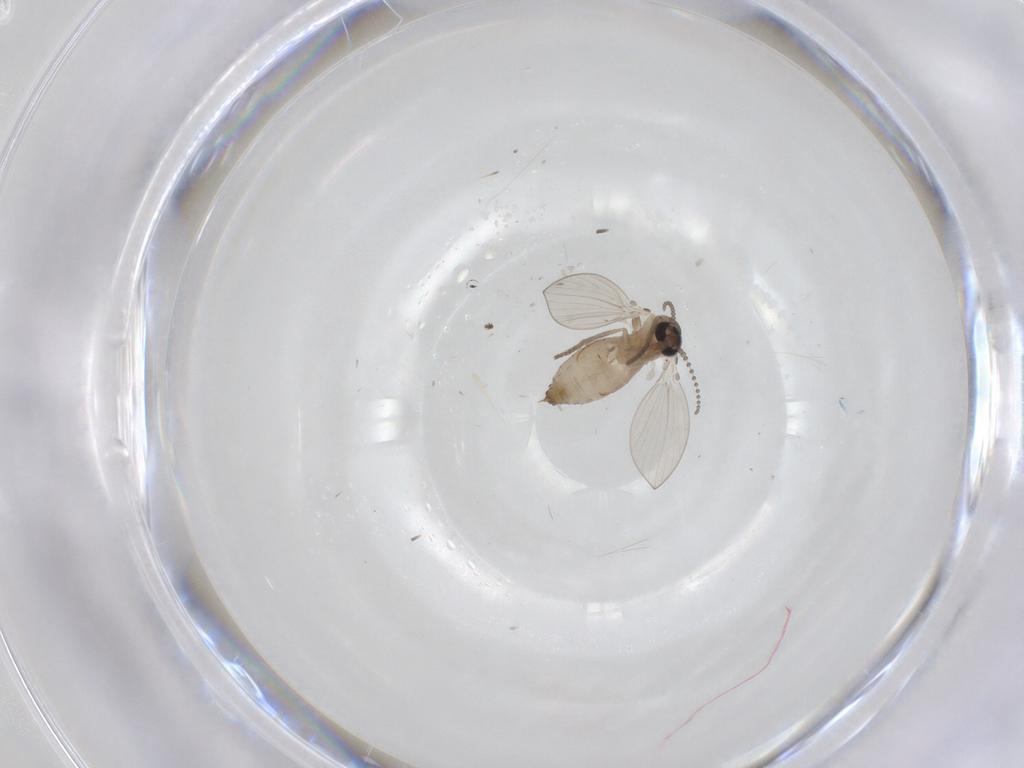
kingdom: Animalia
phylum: Arthropoda
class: Insecta
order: Diptera
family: Psychodidae
